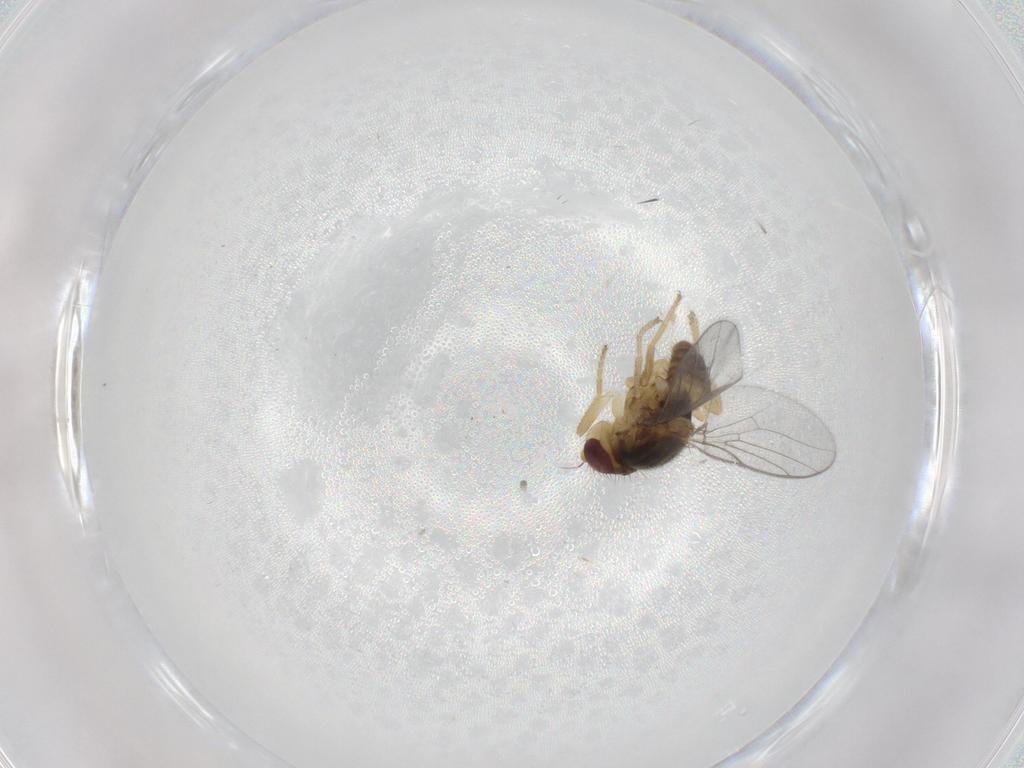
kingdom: Animalia
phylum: Arthropoda
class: Insecta
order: Diptera
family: Chloropidae
